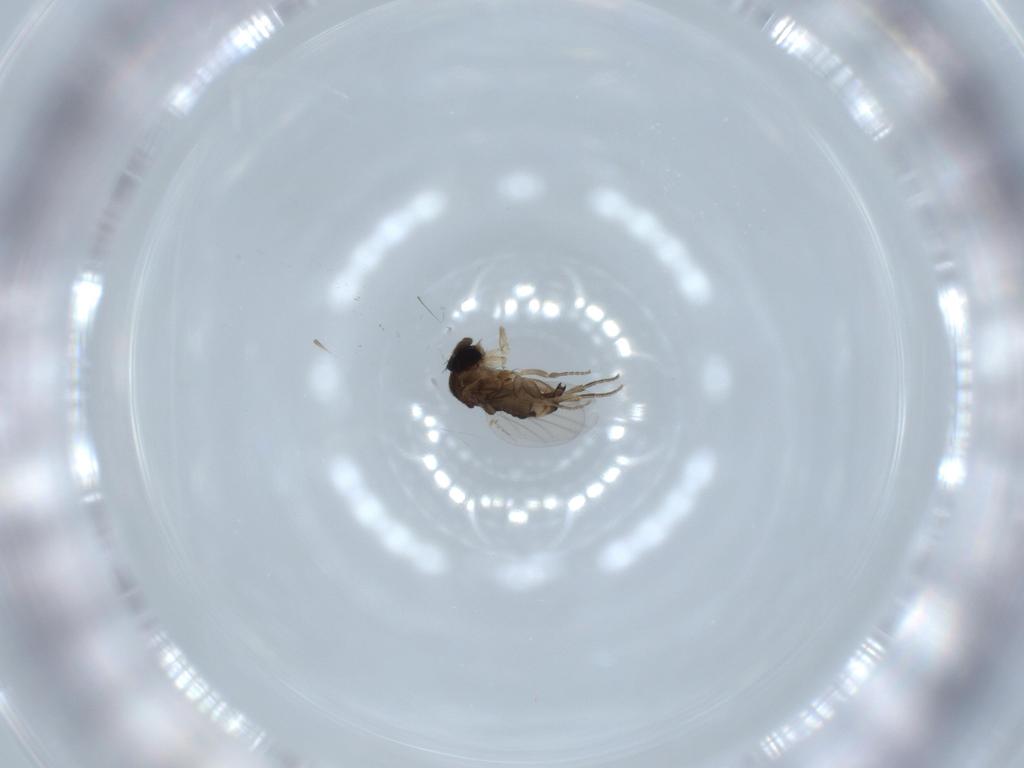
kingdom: Animalia
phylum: Arthropoda
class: Insecta
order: Diptera
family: Phoridae
